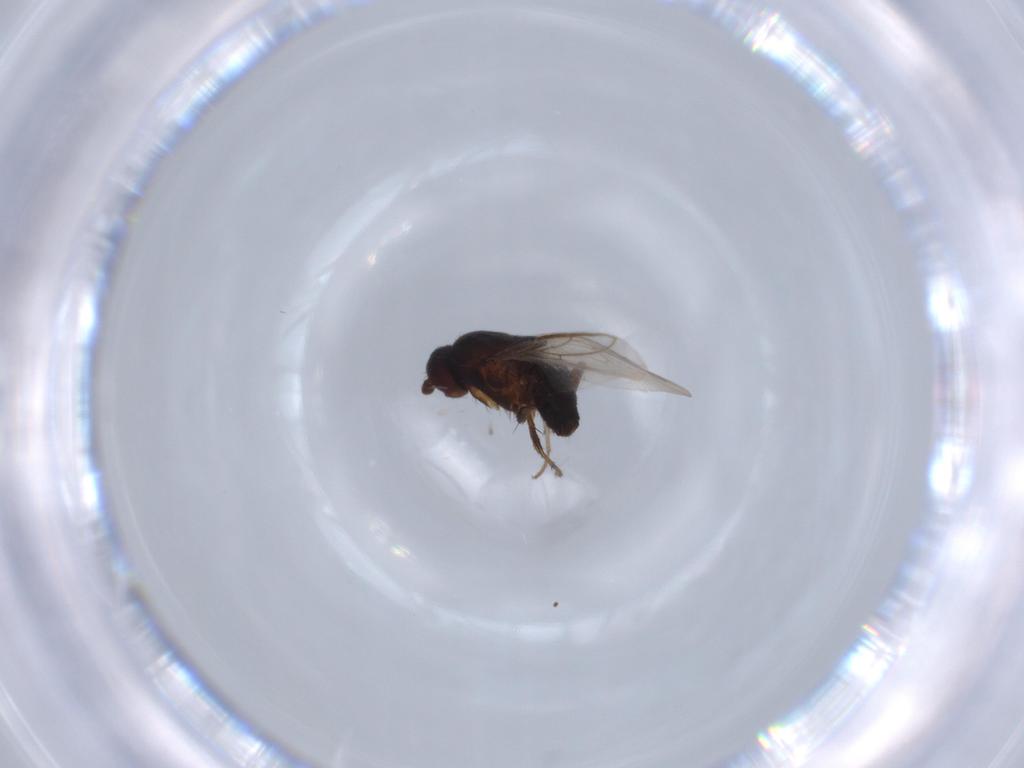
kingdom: Animalia
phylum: Arthropoda
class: Insecta
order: Diptera
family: Sphaeroceridae
